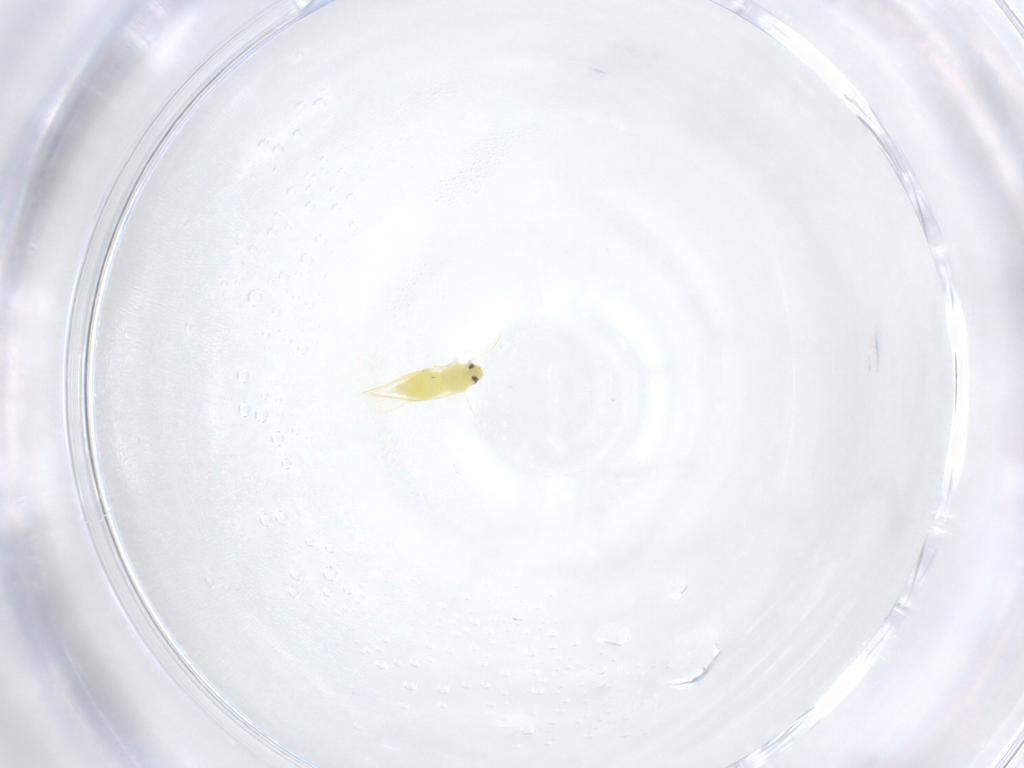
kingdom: Animalia
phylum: Arthropoda
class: Insecta
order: Hemiptera
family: Aleyrodidae
